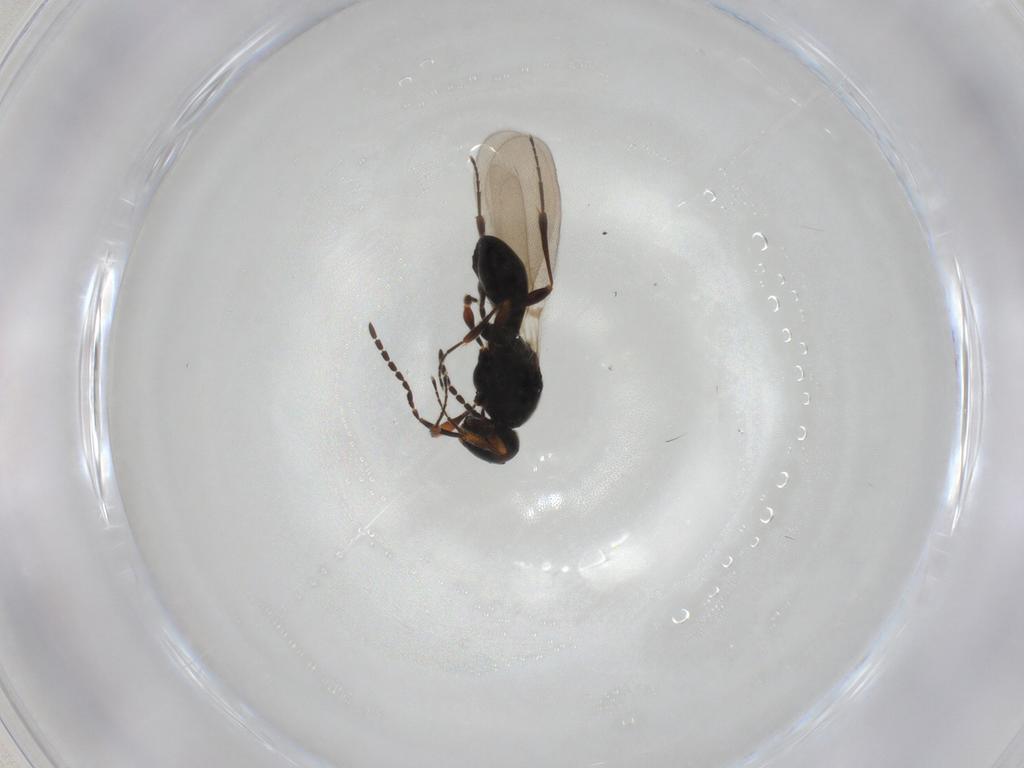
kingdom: Animalia
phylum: Arthropoda
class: Insecta
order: Hymenoptera
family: Platygastridae
